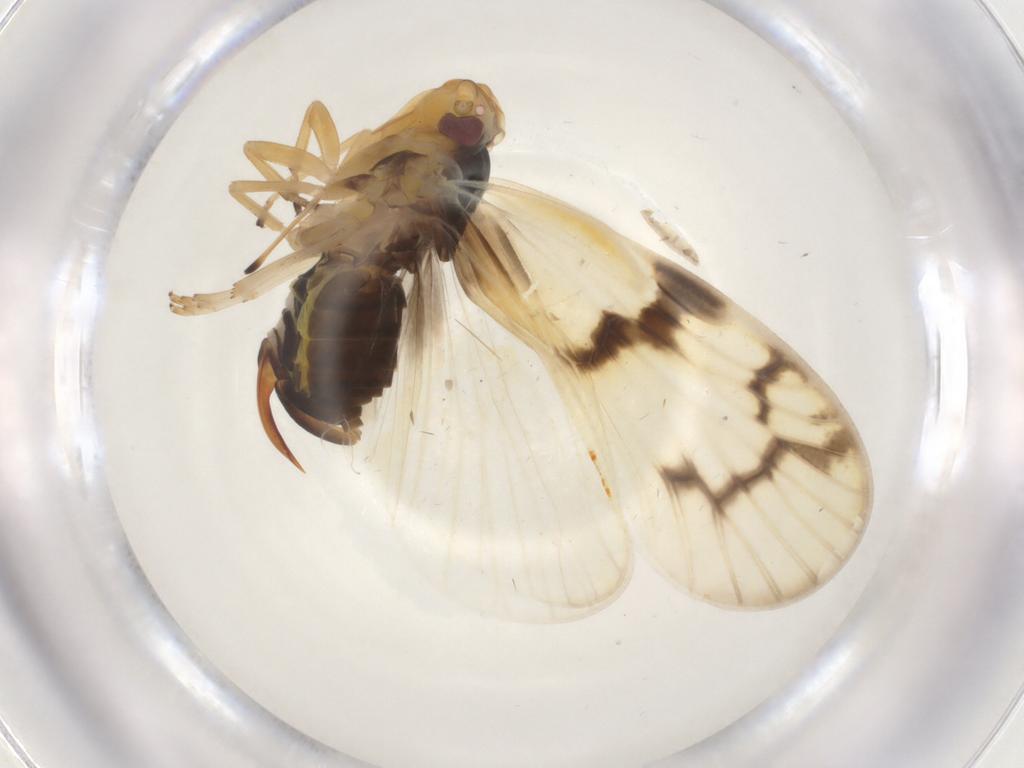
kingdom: Animalia
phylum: Arthropoda
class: Insecta
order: Hemiptera
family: Cixiidae
